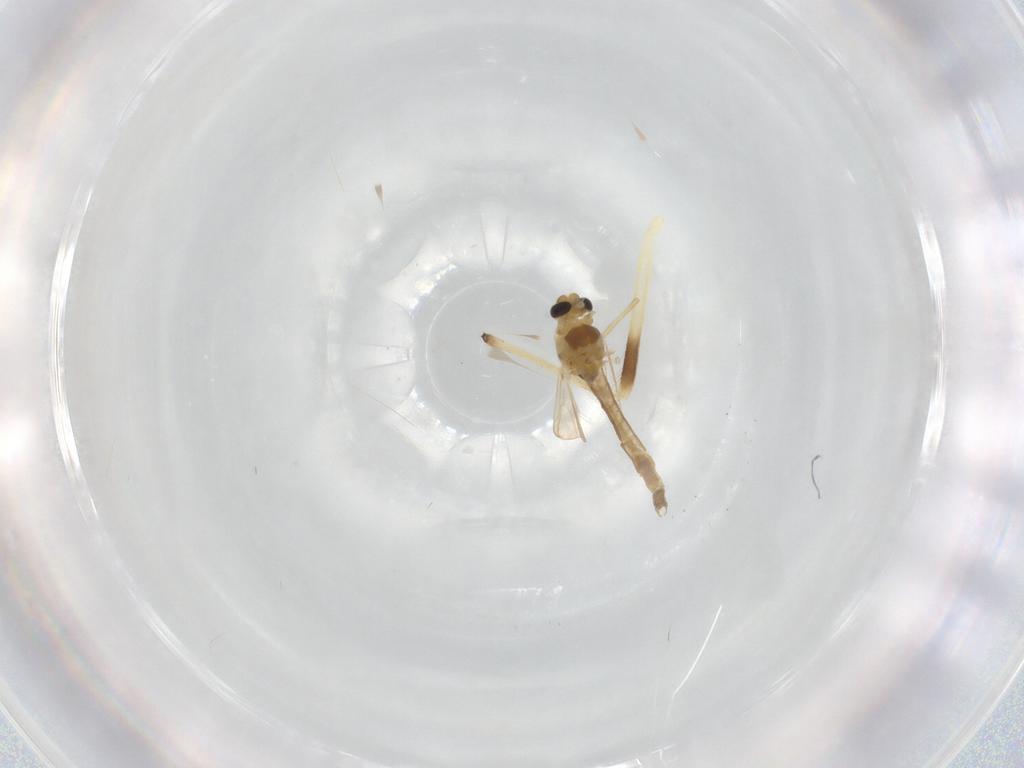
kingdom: Animalia
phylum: Arthropoda
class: Insecta
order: Diptera
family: Chironomidae
